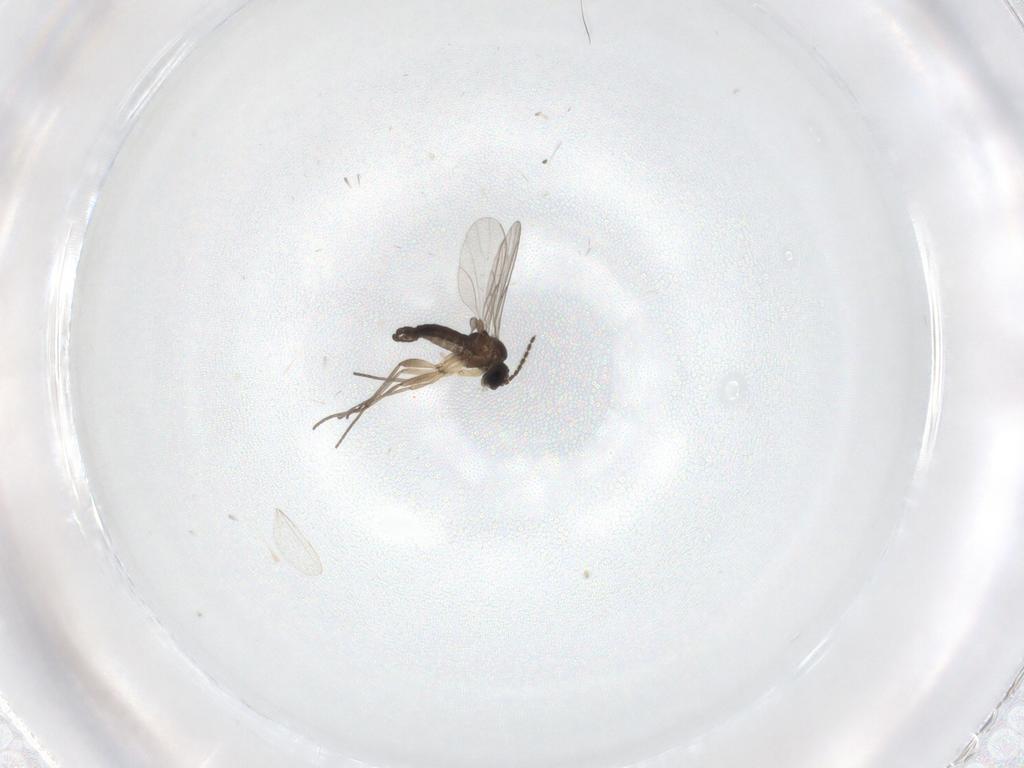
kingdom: Animalia
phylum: Arthropoda
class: Insecta
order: Diptera
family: Cecidomyiidae
